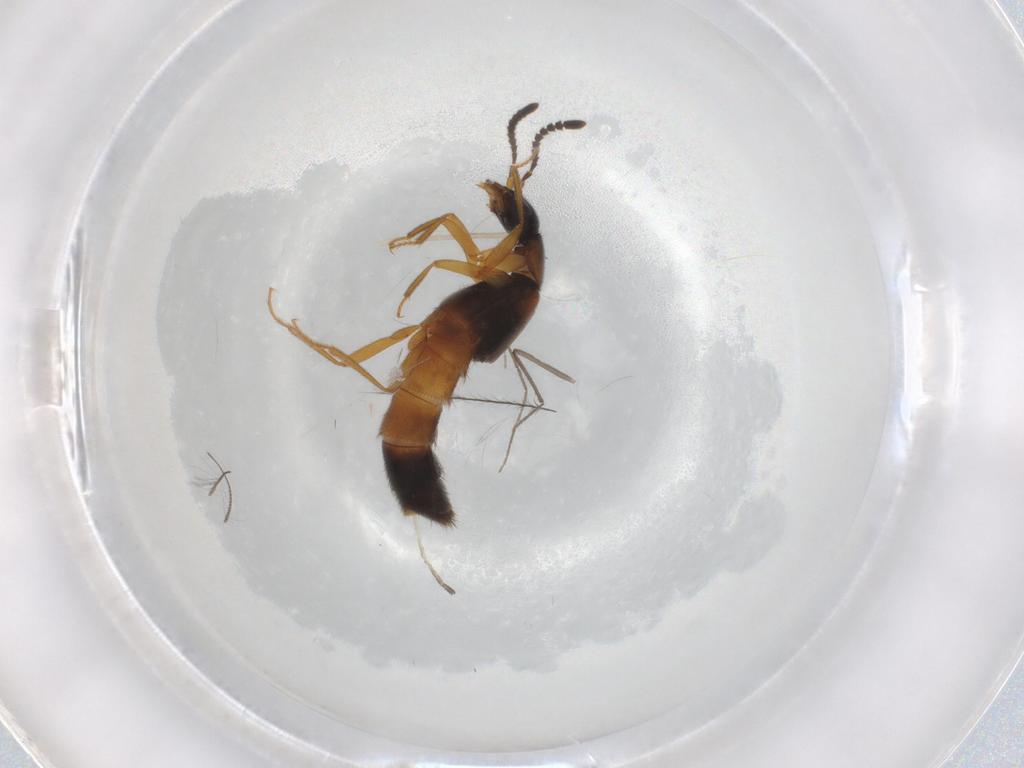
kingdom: Animalia
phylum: Arthropoda
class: Insecta
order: Coleoptera
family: Staphylinidae
